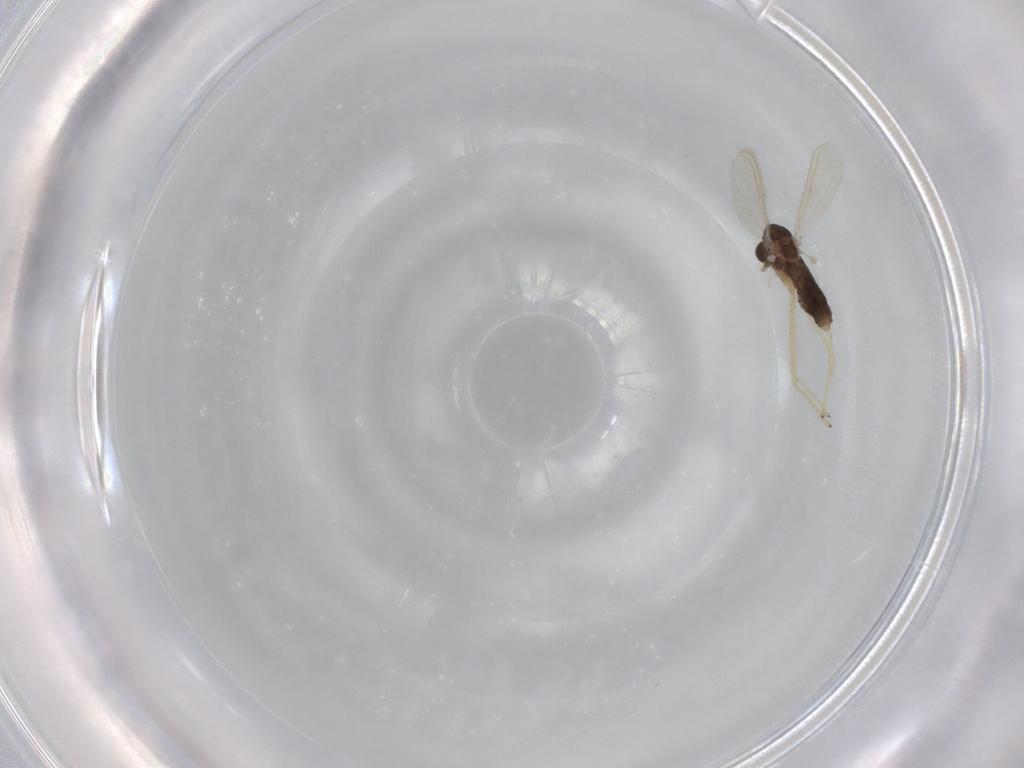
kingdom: Animalia
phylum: Arthropoda
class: Insecta
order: Diptera
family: Chironomidae
